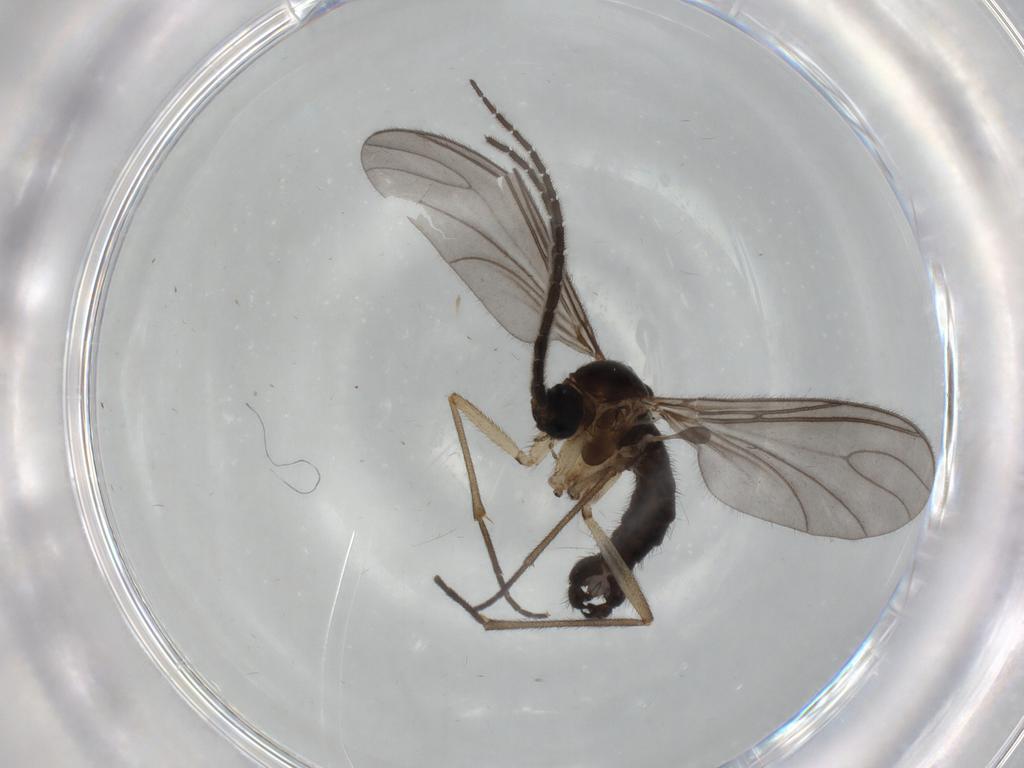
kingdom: Animalia
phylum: Arthropoda
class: Insecta
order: Diptera
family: Sciaridae
